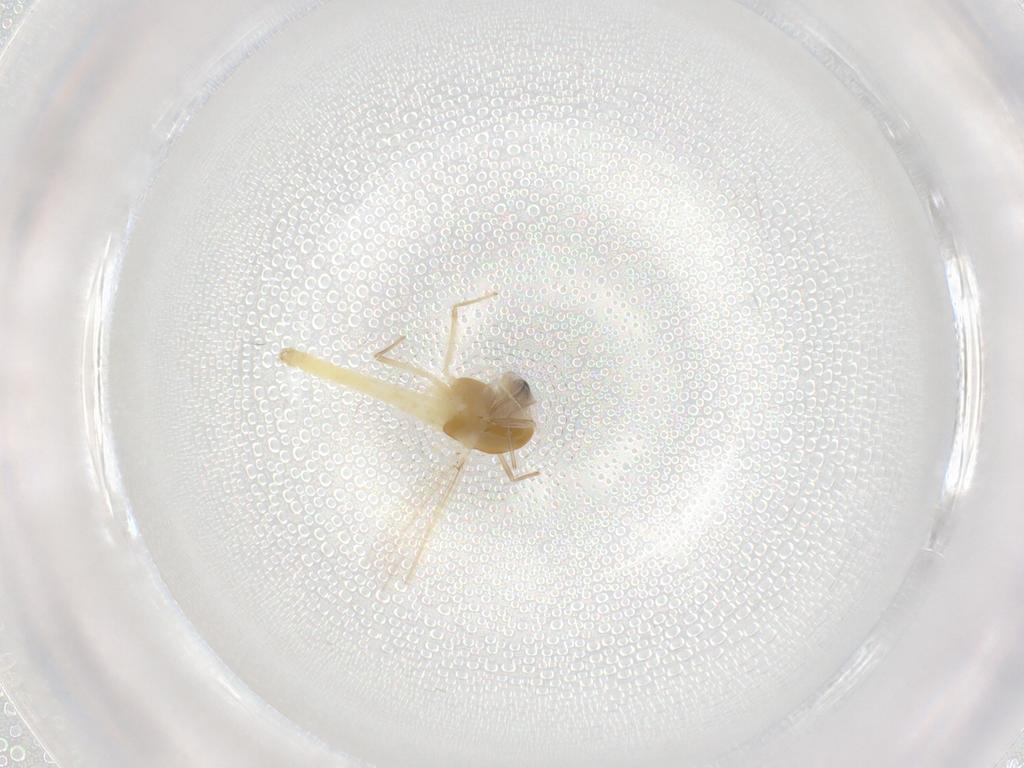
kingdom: Animalia
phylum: Arthropoda
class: Insecta
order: Diptera
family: Chironomidae
